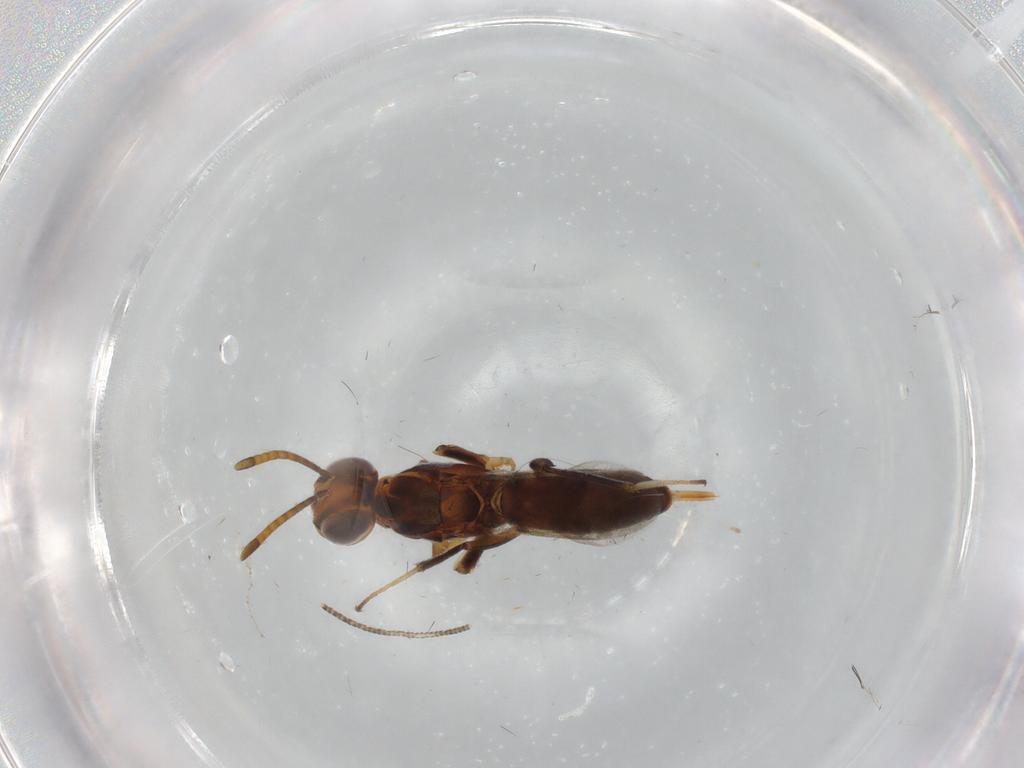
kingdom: Animalia
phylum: Arthropoda
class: Insecta
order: Hymenoptera
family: Eupelmidae
